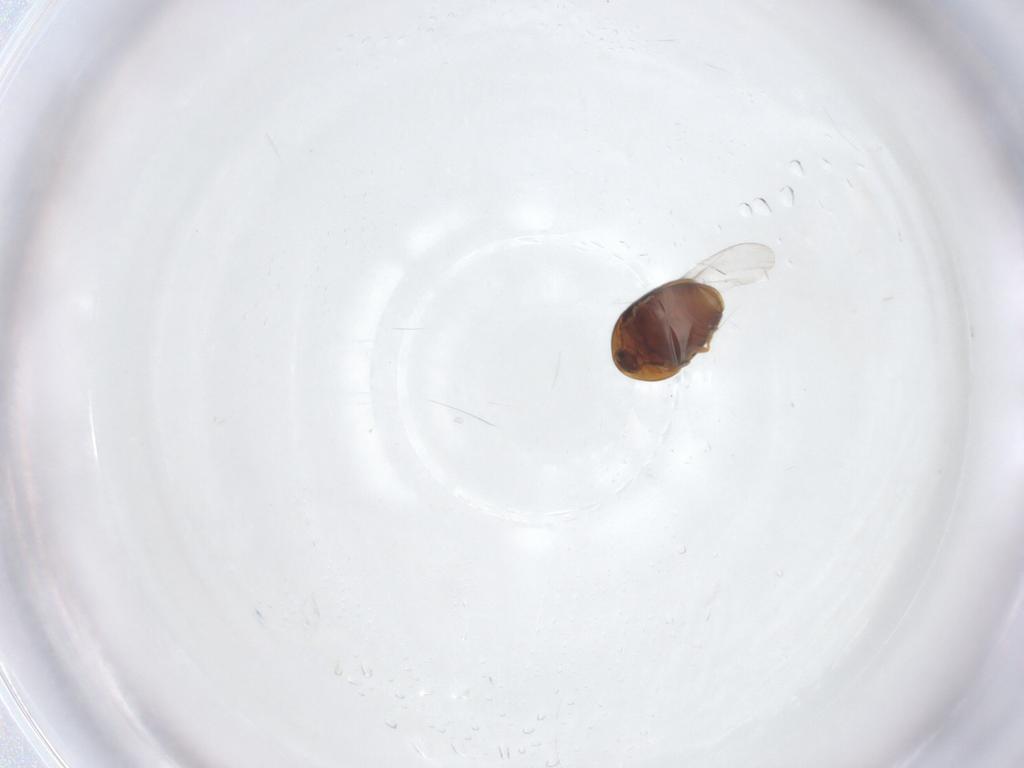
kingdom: Animalia
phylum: Arthropoda
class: Insecta
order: Coleoptera
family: Corylophidae
